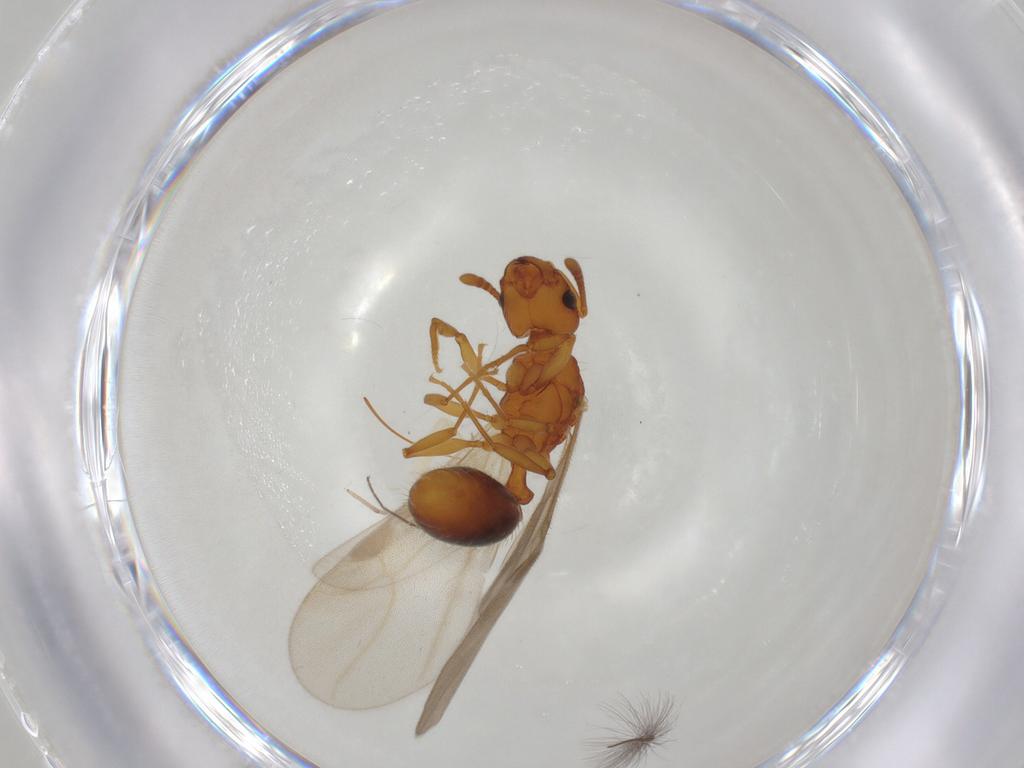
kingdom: Animalia
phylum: Arthropoda
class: Insecta
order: Hymenoptera
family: Formicidae
